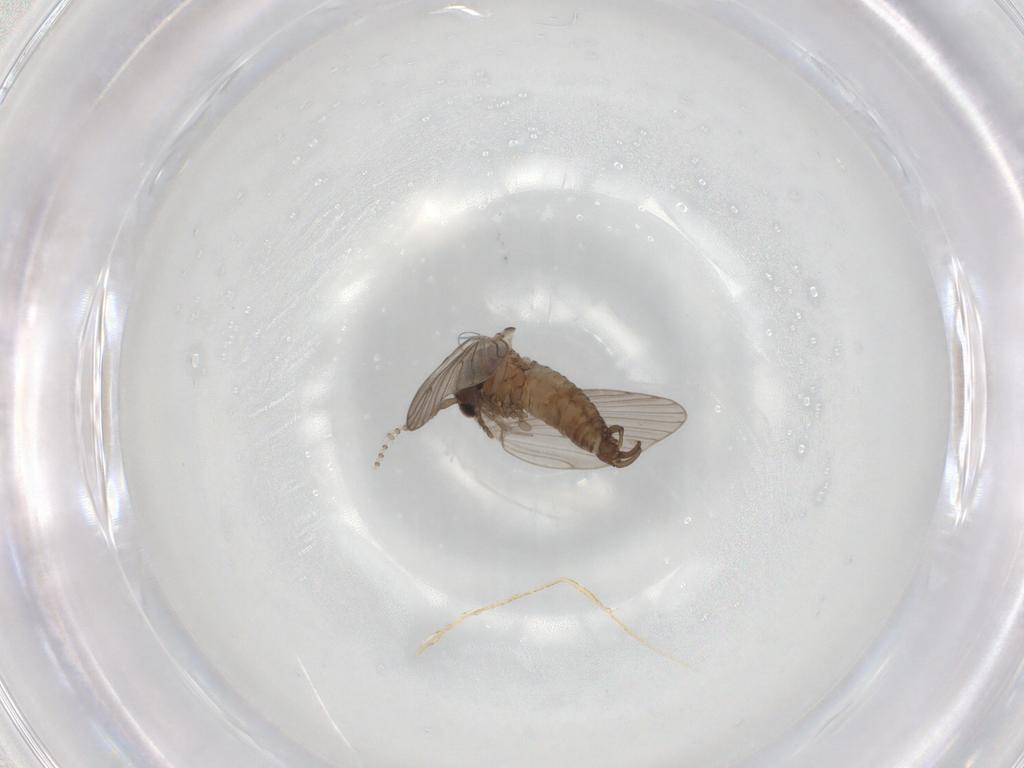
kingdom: Animalia
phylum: Arthropoda
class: Insecta
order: Diptera
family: Psychodidae
